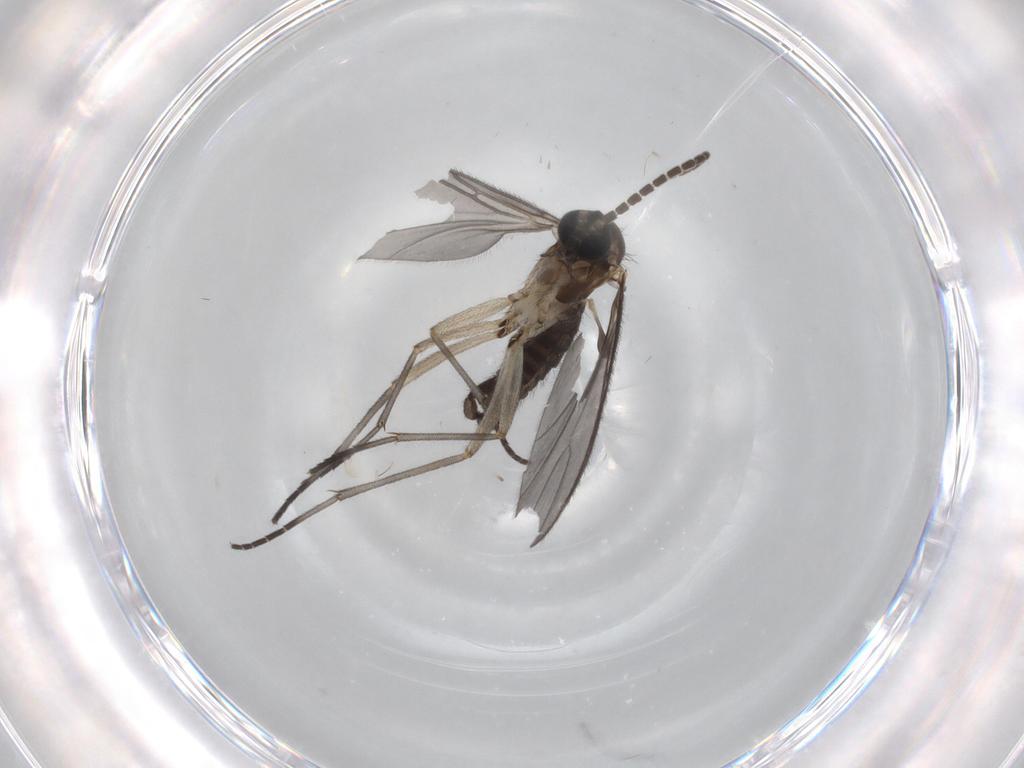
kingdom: Animalia
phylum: Arthropoda
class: Insecta
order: Diptera
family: Sciaridae
